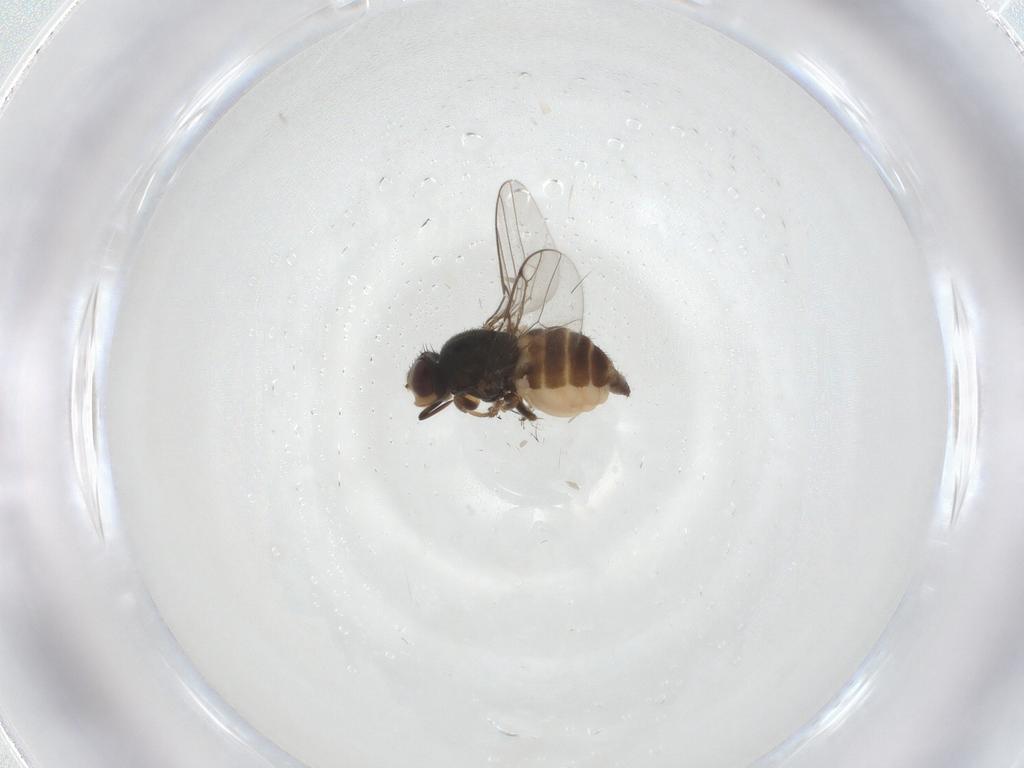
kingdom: Animalia
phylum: Arthropoda
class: Insecta
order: Diptera
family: Chloropidae
